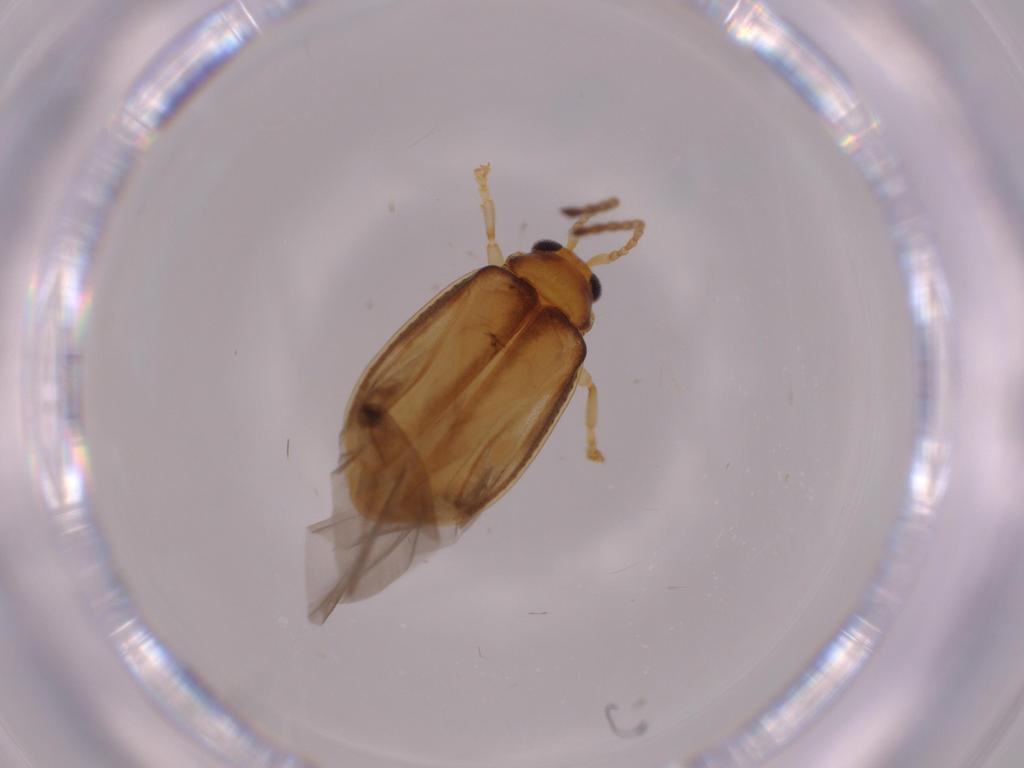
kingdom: Animalia
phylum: Arthropoda
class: Insecta
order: Coleoptera
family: Chrysomelidae
